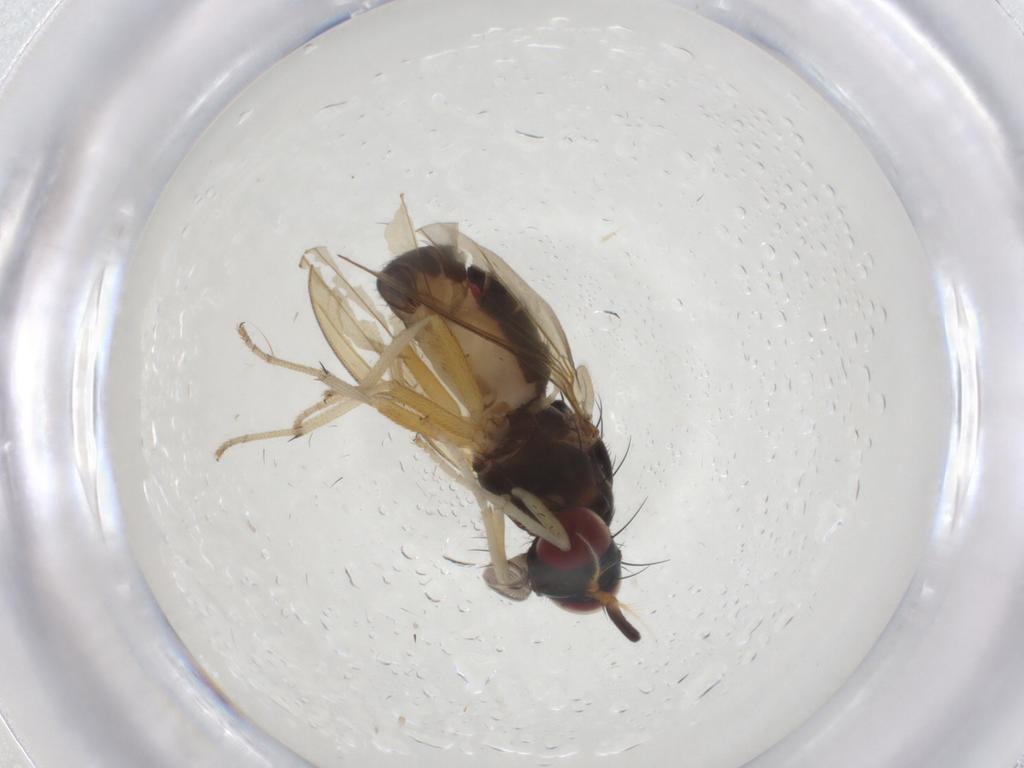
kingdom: Animalia
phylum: Arthropoda
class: Insecta
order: Diptera
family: Lauxaniidae
